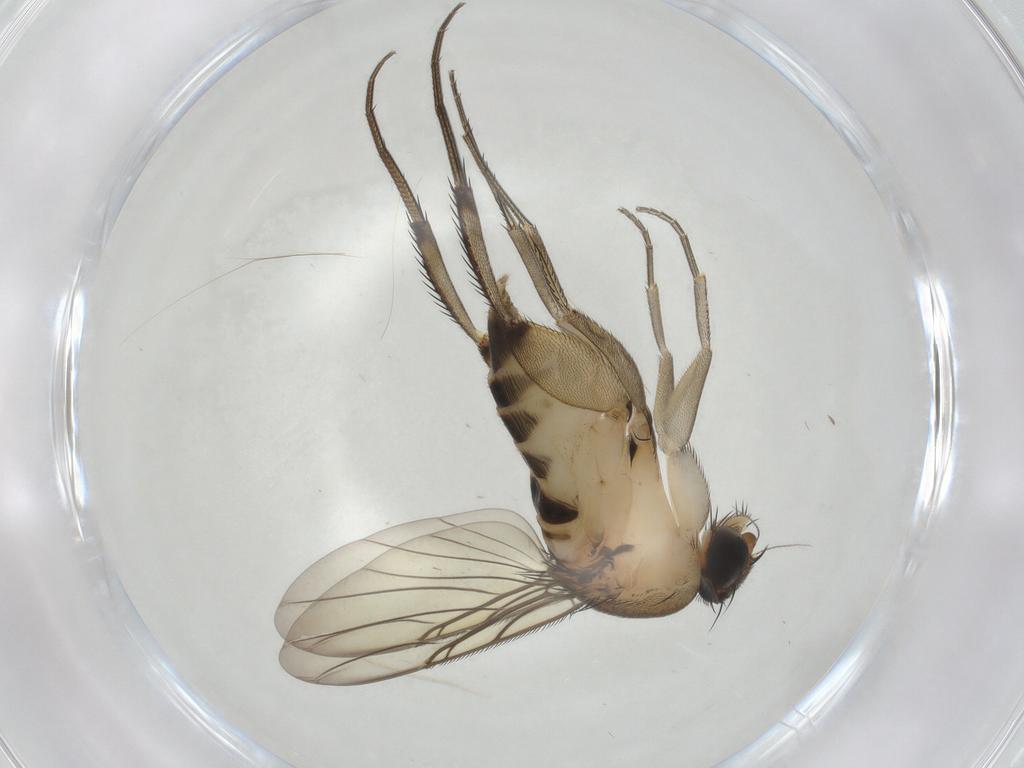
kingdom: Animalia
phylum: Arthropoda
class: Insecta
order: Diptera
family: Phoridae
